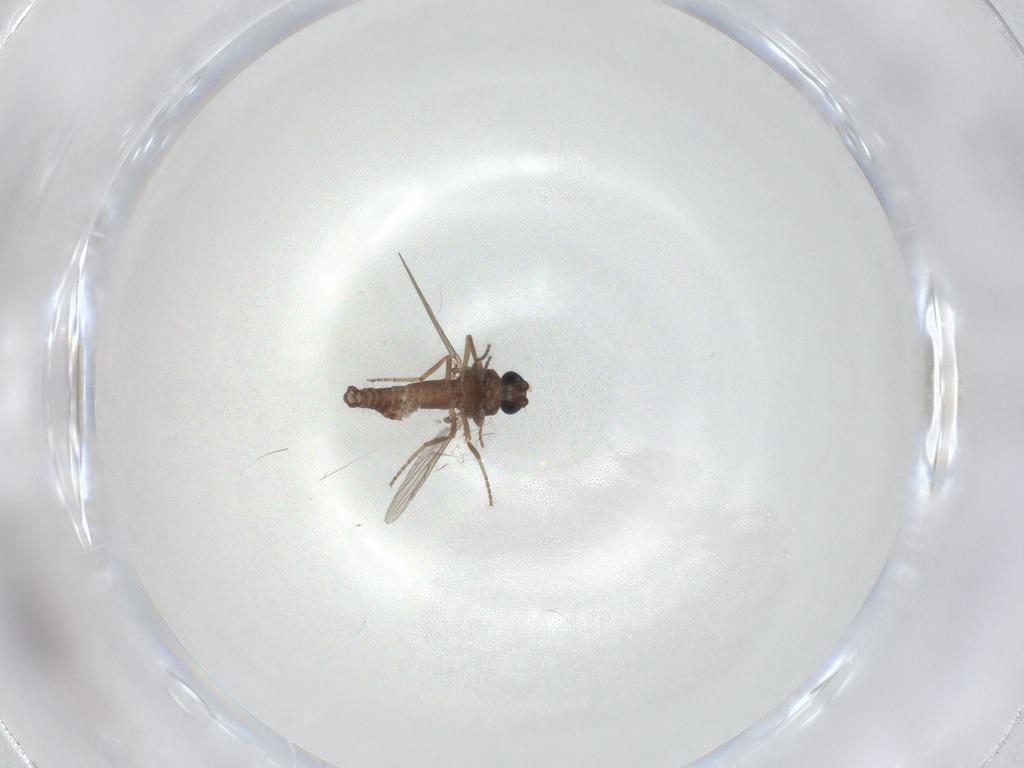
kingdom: Animalia
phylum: Arthropoda
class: Insecta
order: Diptera
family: Ceratopogonidae
